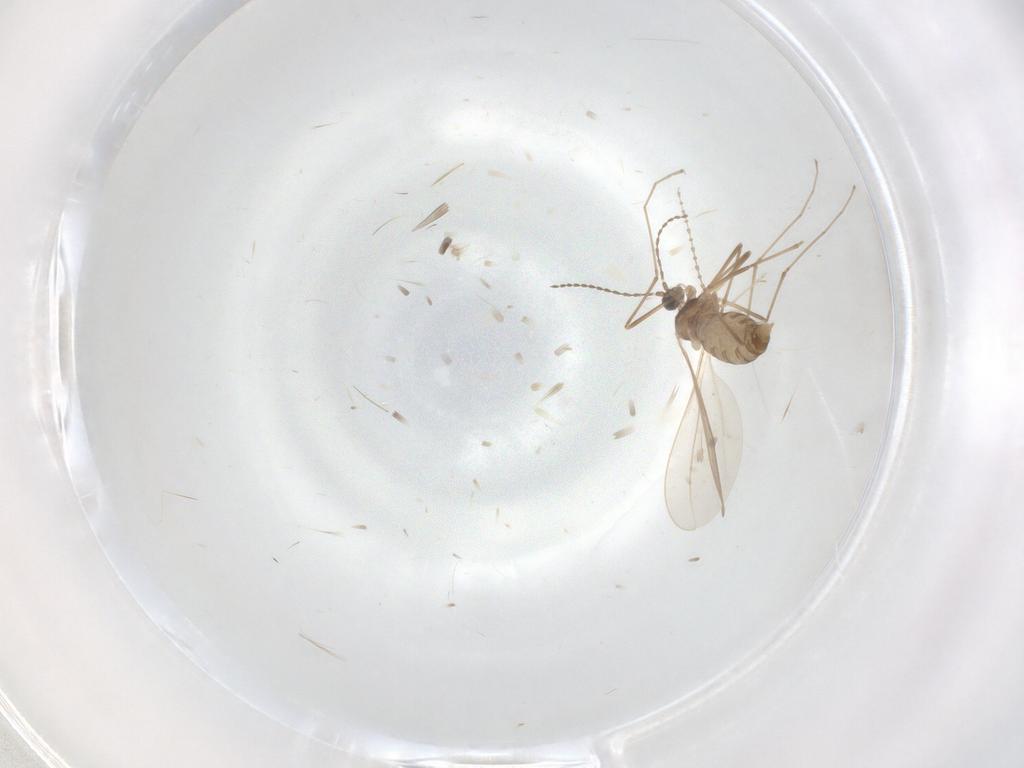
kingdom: Animalia
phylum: Arthropoda
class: Insecta
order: Diptera
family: Cecidomyiidae
